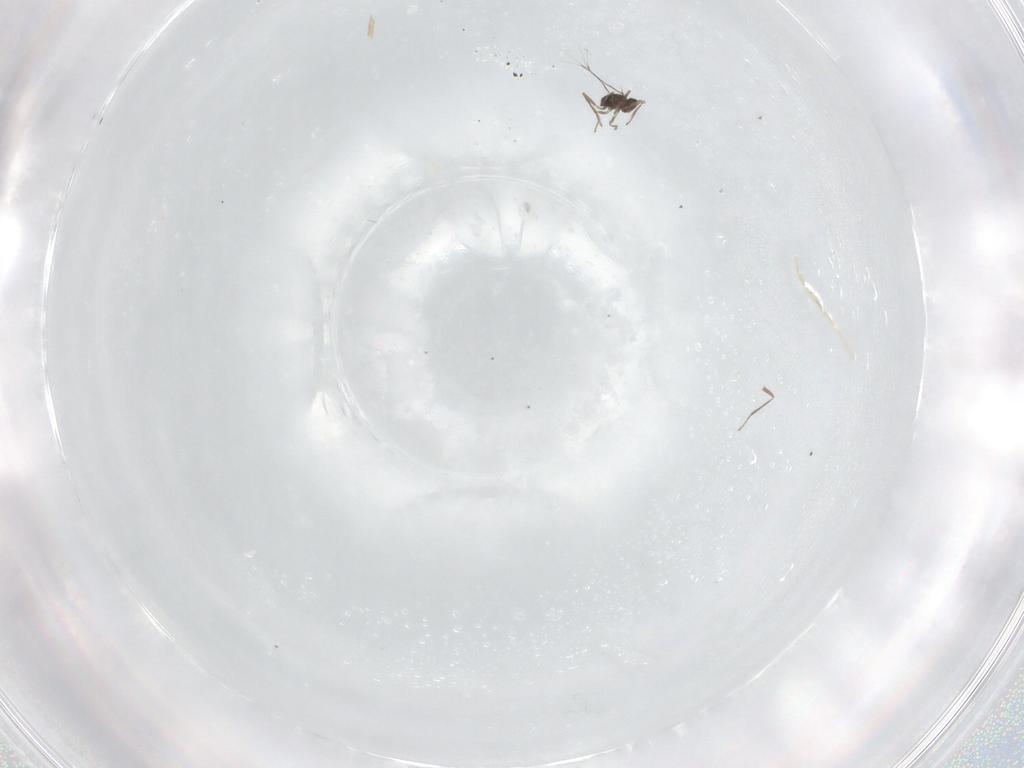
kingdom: Animalia
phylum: Arthropoda
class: Insecta
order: Hymenoptera
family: Mymaridae
